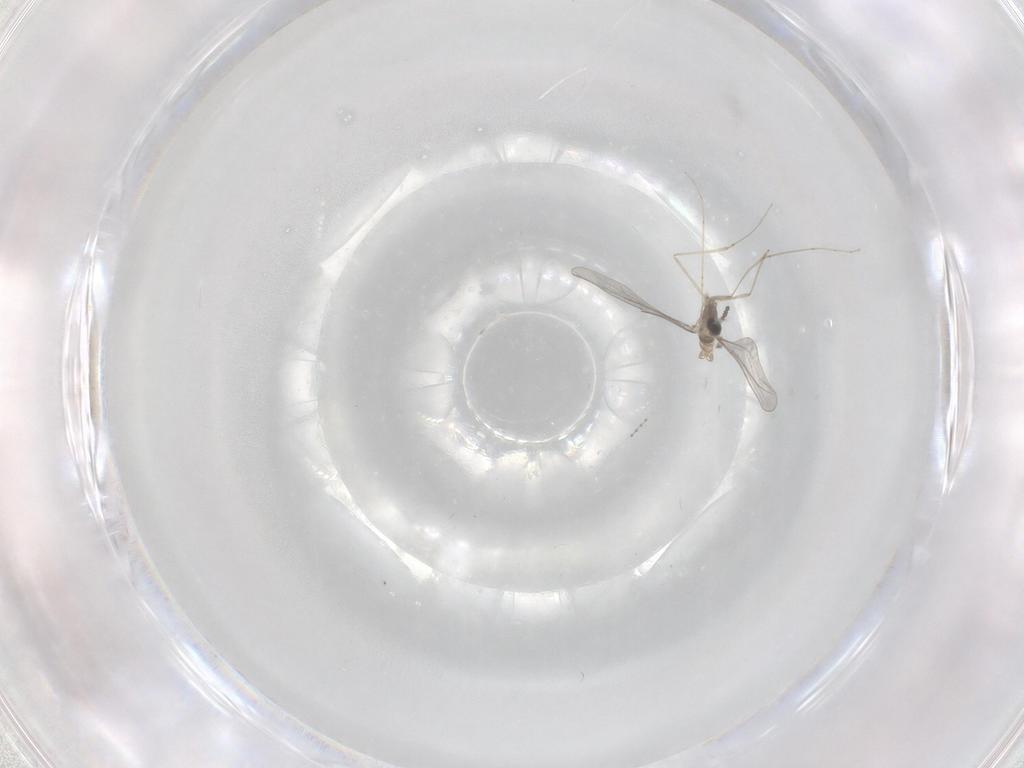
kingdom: Animalia
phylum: Arthropoda
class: Insecta
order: Diptera
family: Cecidomyiidae
